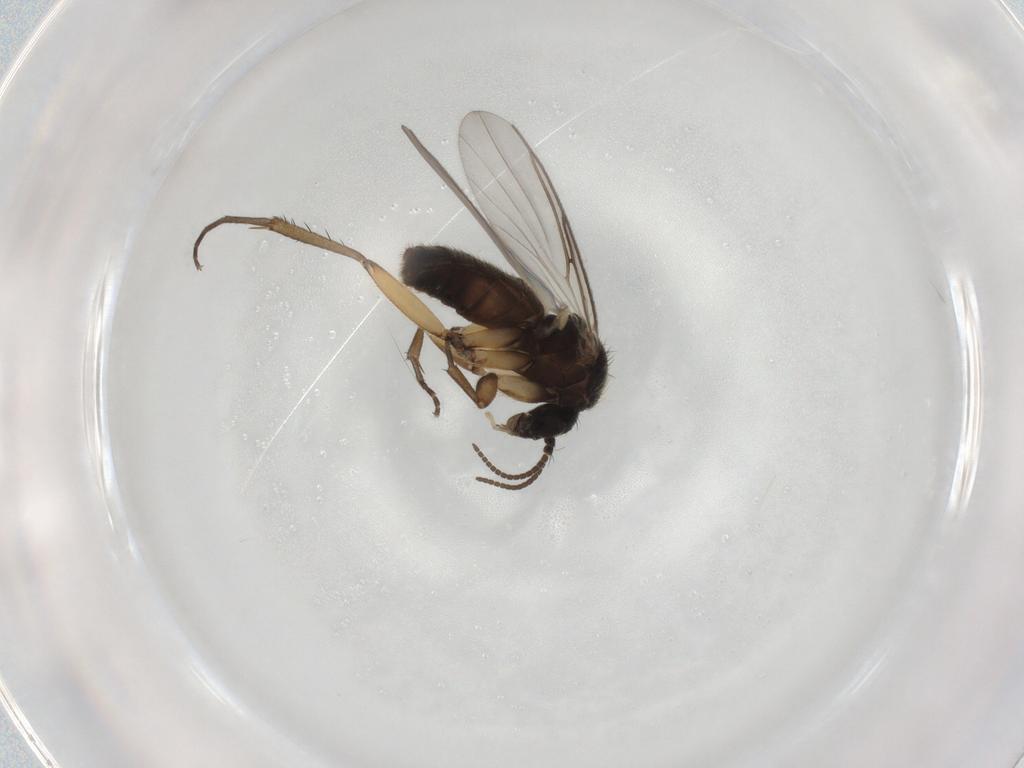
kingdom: Animalia
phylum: Arthropoda
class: Insecta
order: Diptera
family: Mycetophilidae
